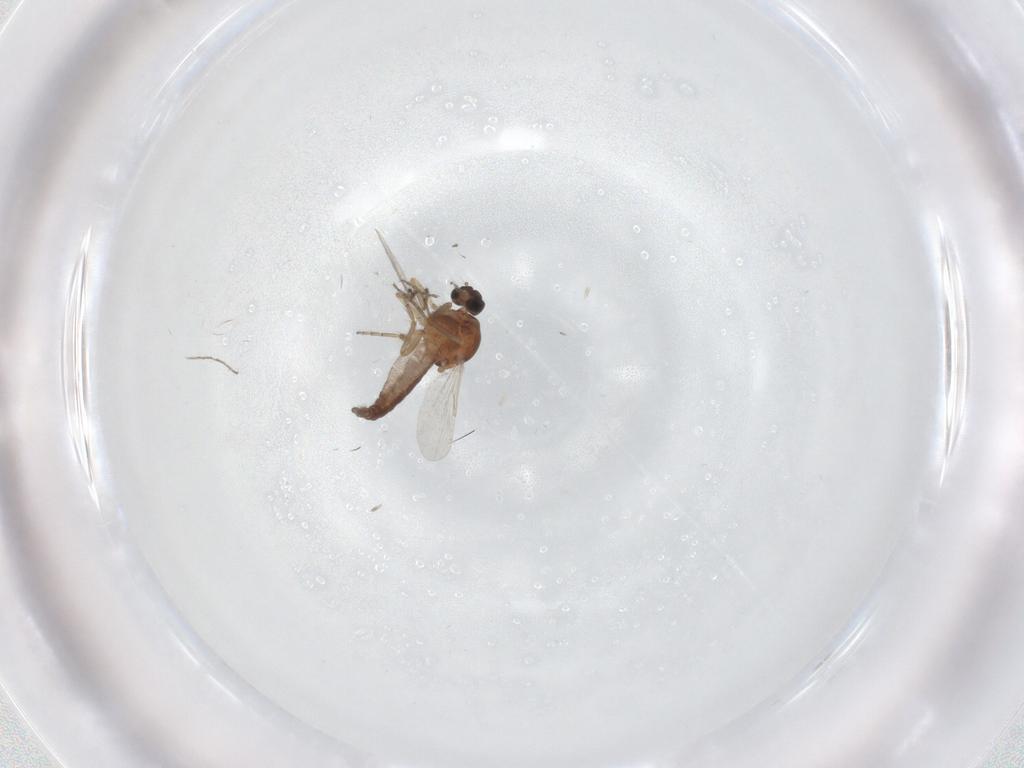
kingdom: Animalia
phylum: Arthropoda
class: Insecta
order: Diptera
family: Ceratopogonidae
